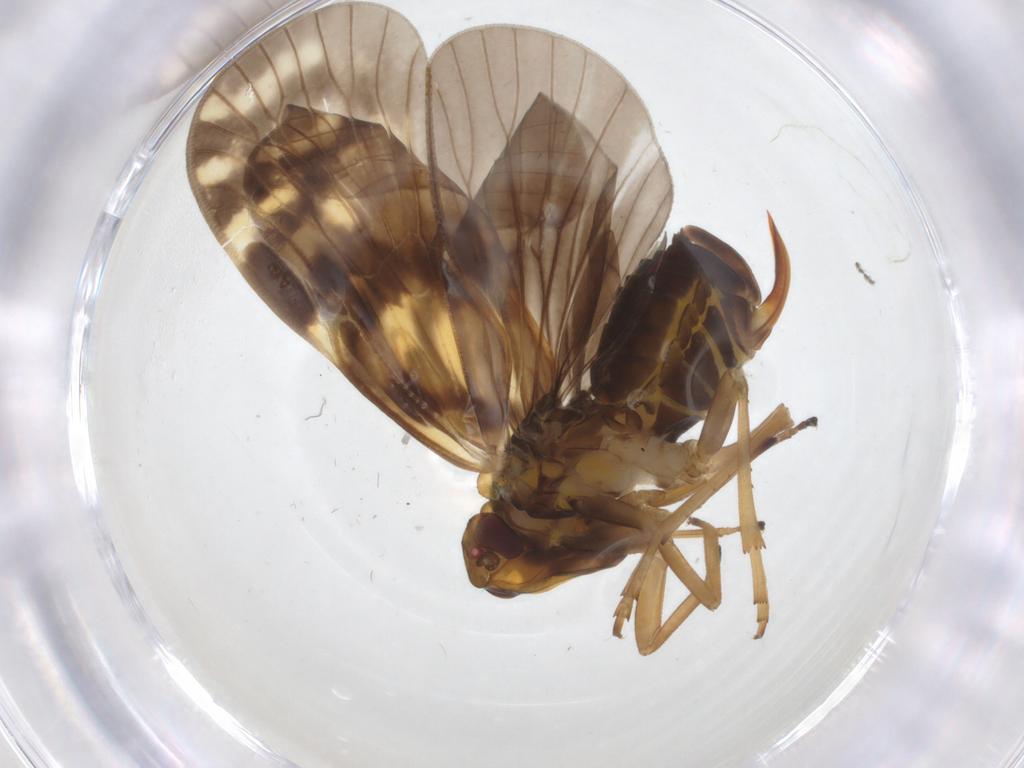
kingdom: Animalia
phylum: Arthropoda
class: Insecta
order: Hemiptera
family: Cixiidae
